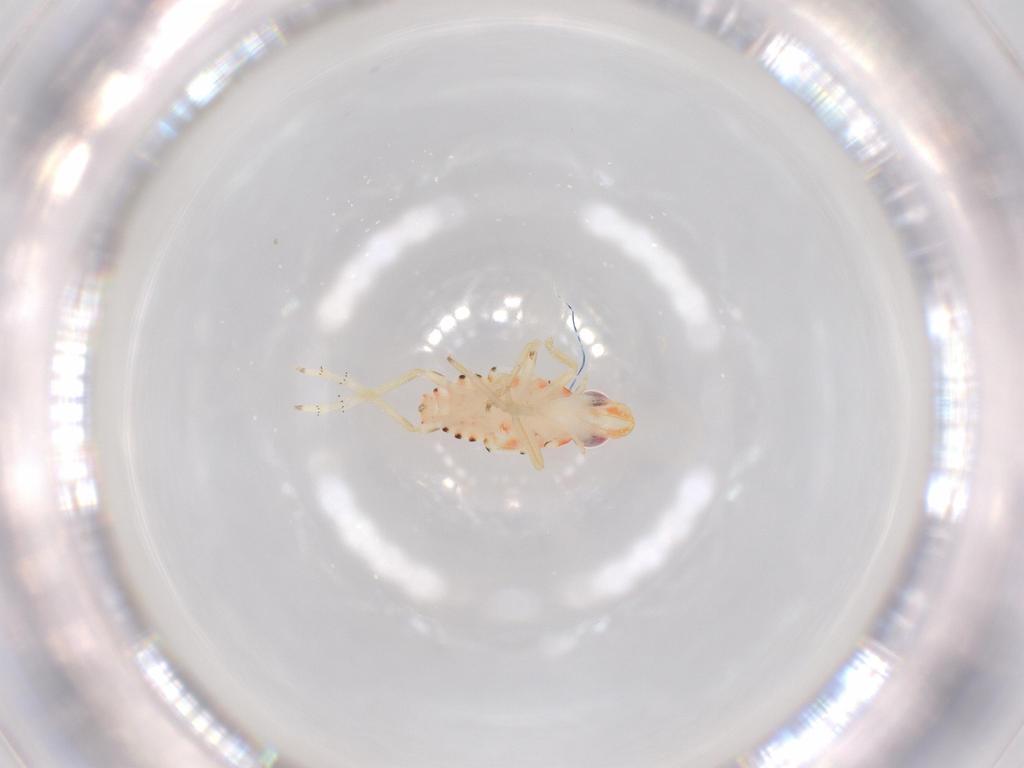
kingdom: Animalia
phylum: Arthropoda
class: Insecta
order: Hemiptera
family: Tropiduchidae
